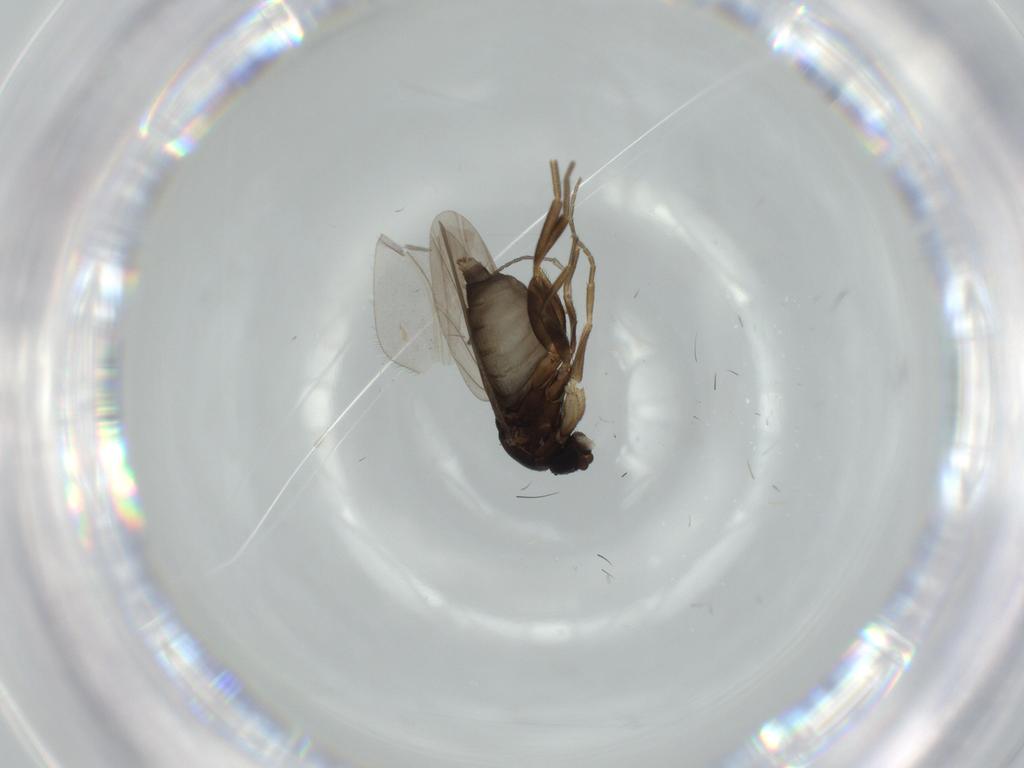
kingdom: Animalia
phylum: Arthropoda
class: Insecta
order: Diptera
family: Phoridae
